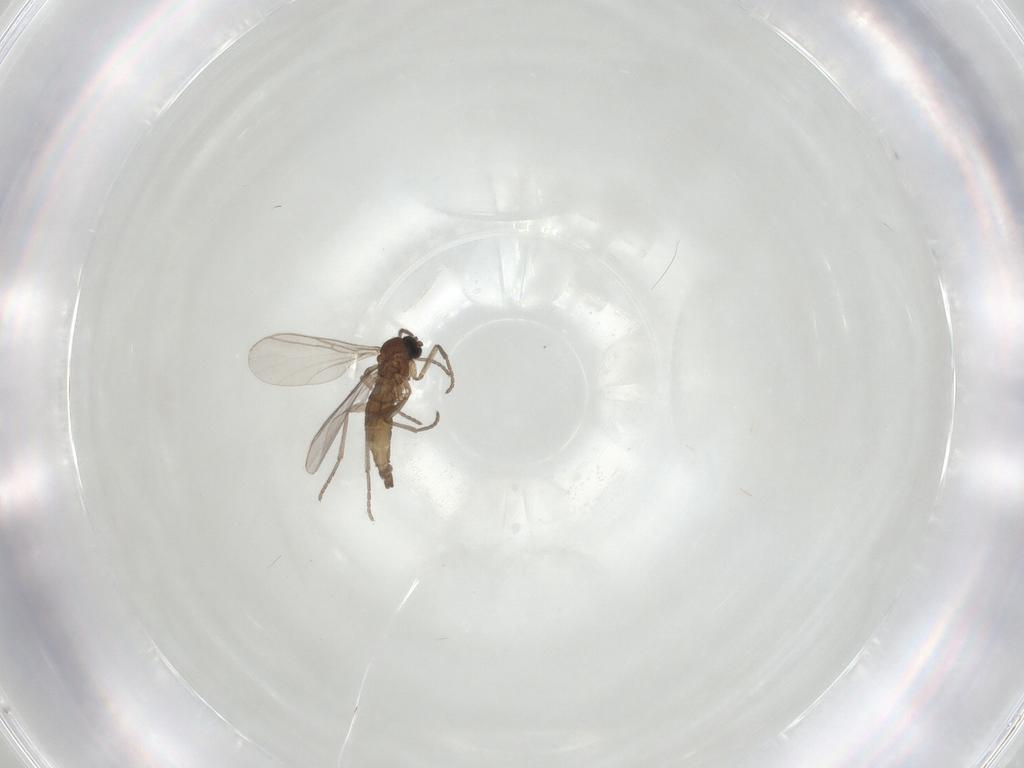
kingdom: Animalia
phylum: Arthropoda
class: Insecta
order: Diptera
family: Sciaridae
